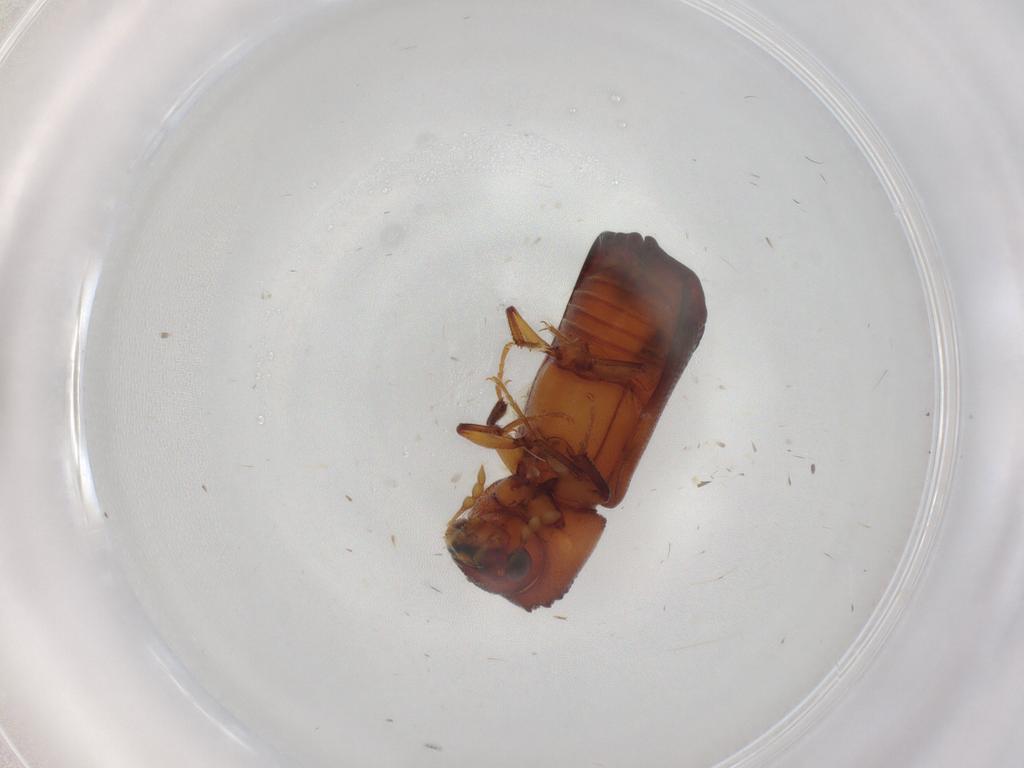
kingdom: Animalia
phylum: Arthropoda
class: Insecta
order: Coleoptera
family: Bostrichidae
